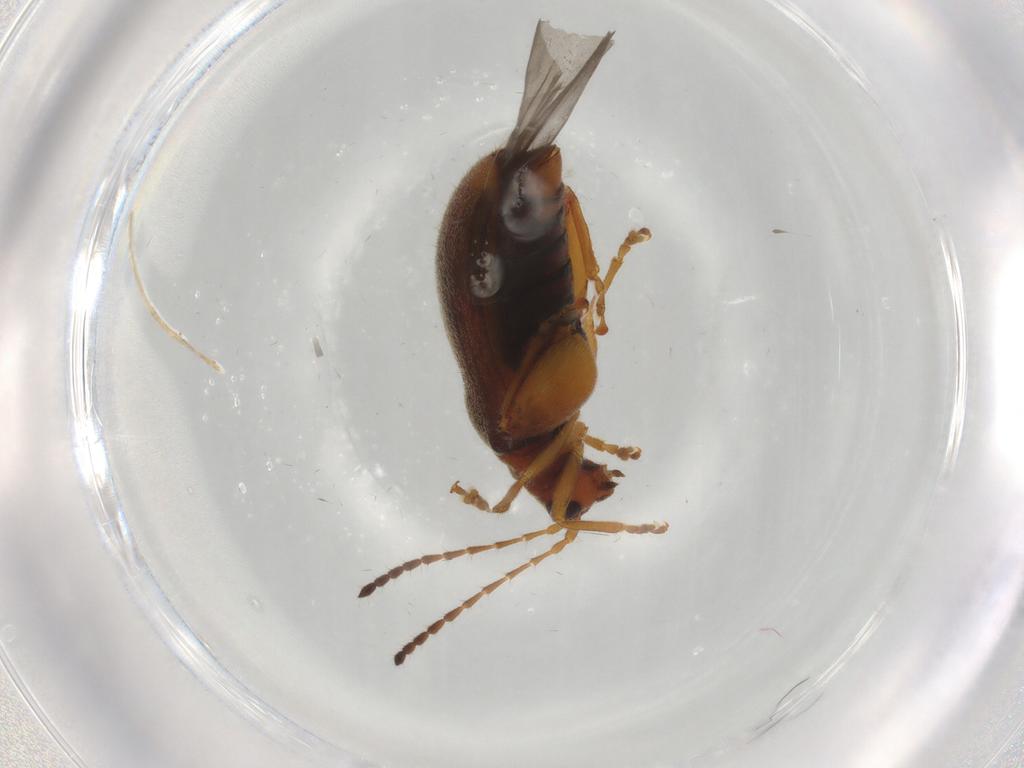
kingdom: Animalia
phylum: Arthropoda
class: Insecta
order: Coleoptera
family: Chrysomelidae
